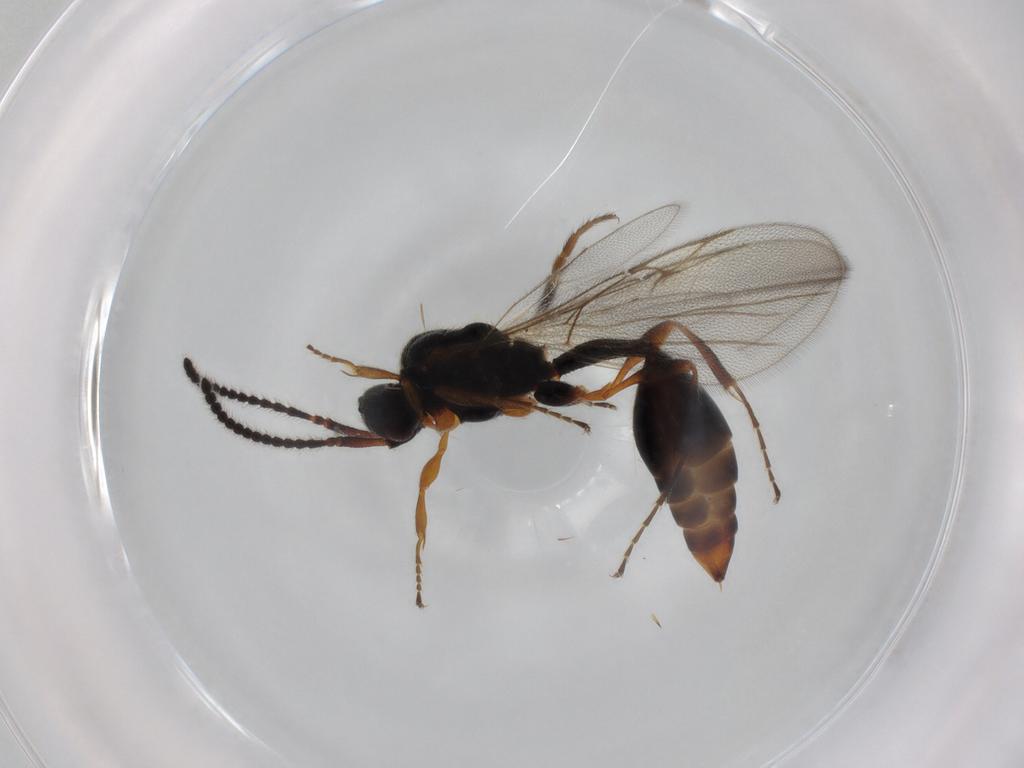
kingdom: Animalia
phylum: Arthropoda
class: Insecta
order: Hymenoptera
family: Diapriidae
